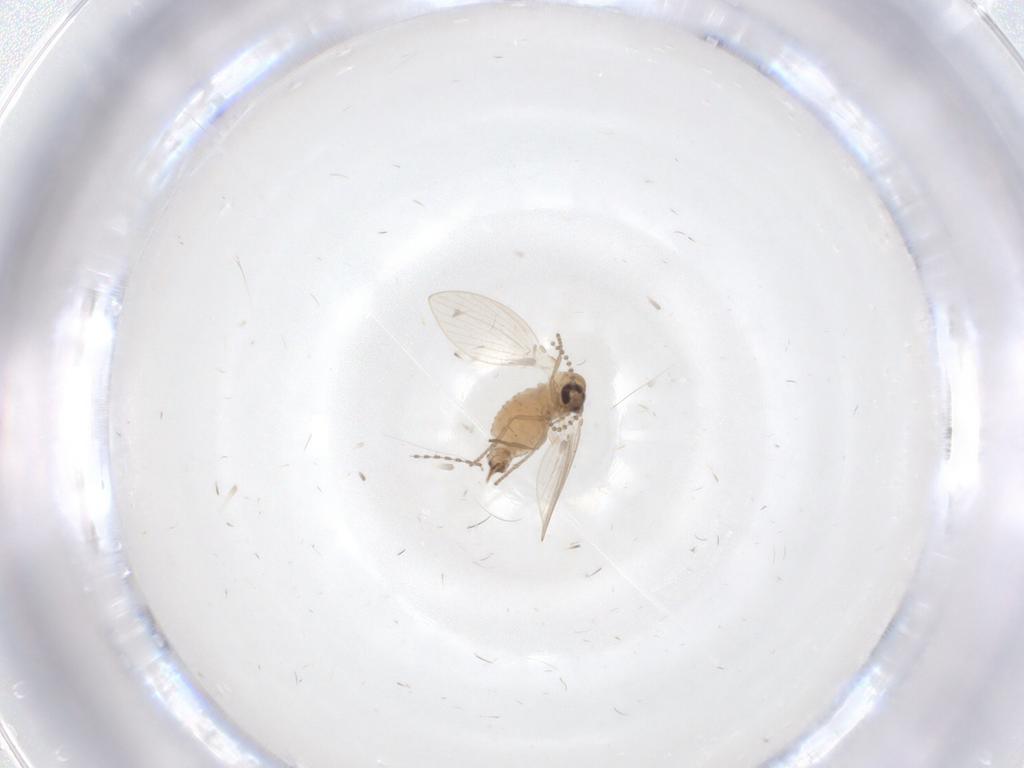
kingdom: Animalia
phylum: Arthropoda
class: Insecta
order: Diptera
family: Psychodidae
